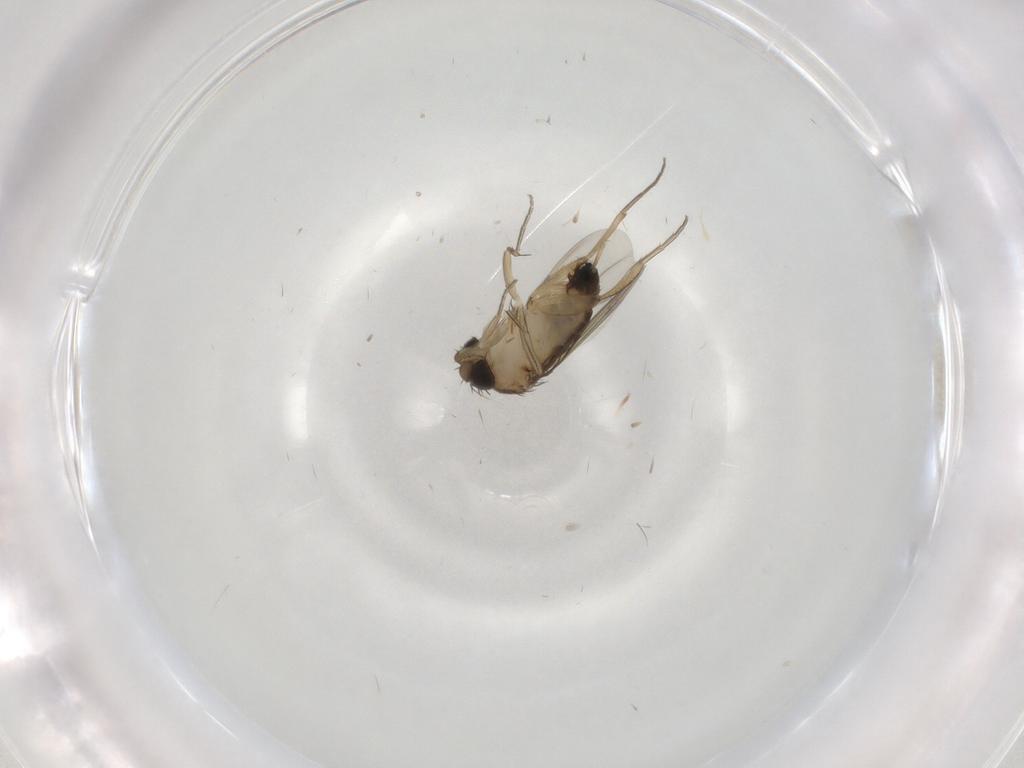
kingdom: Animalia
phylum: Arthropoda
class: Insecta
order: Diptera
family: Phoridae
